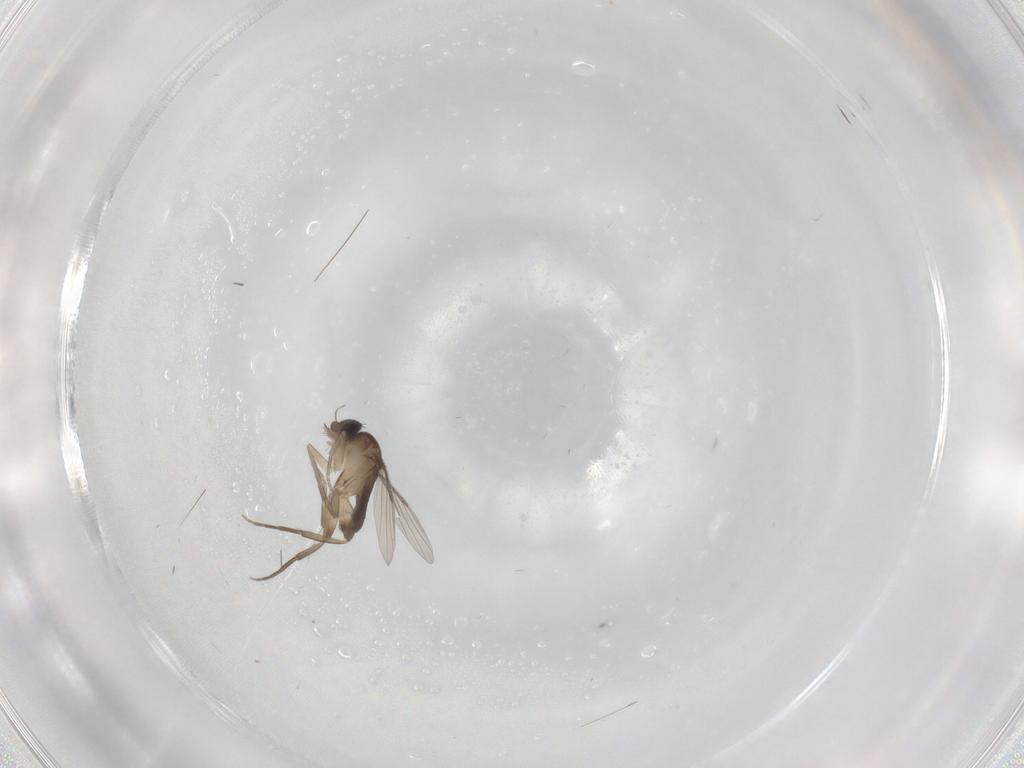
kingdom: Animalia
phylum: Arthropoda
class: Insecta
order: Diptera
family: Phoridae
